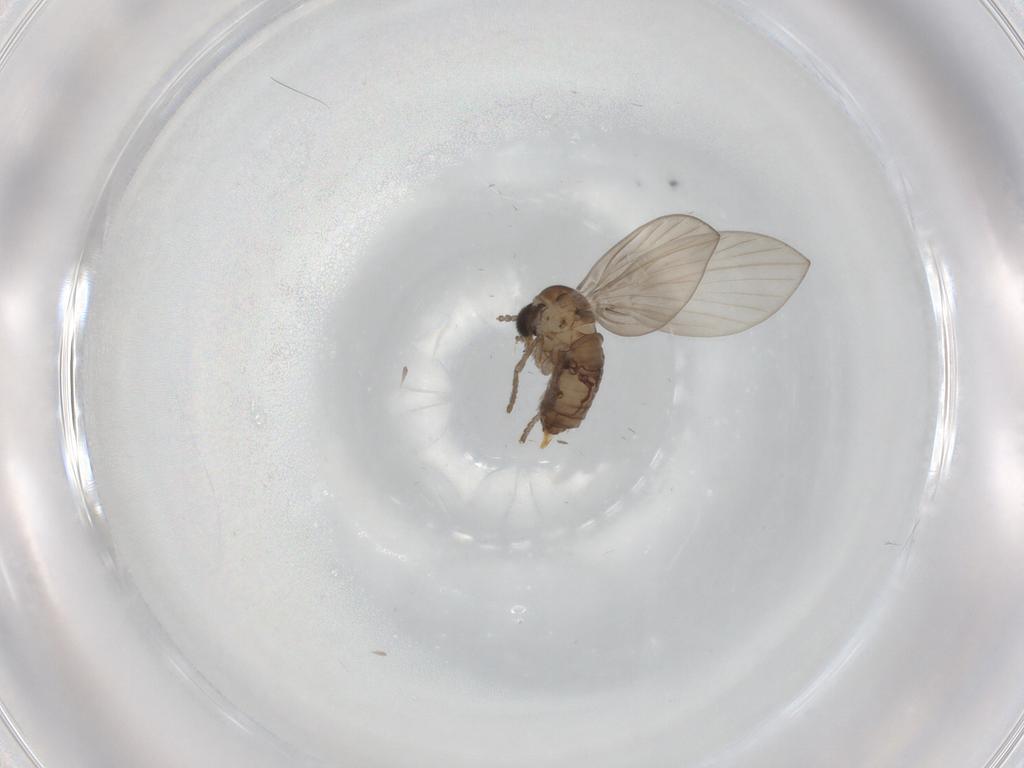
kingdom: Animalia
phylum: Arthropoda
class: Insecta
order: Diptera
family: Psychodidae
